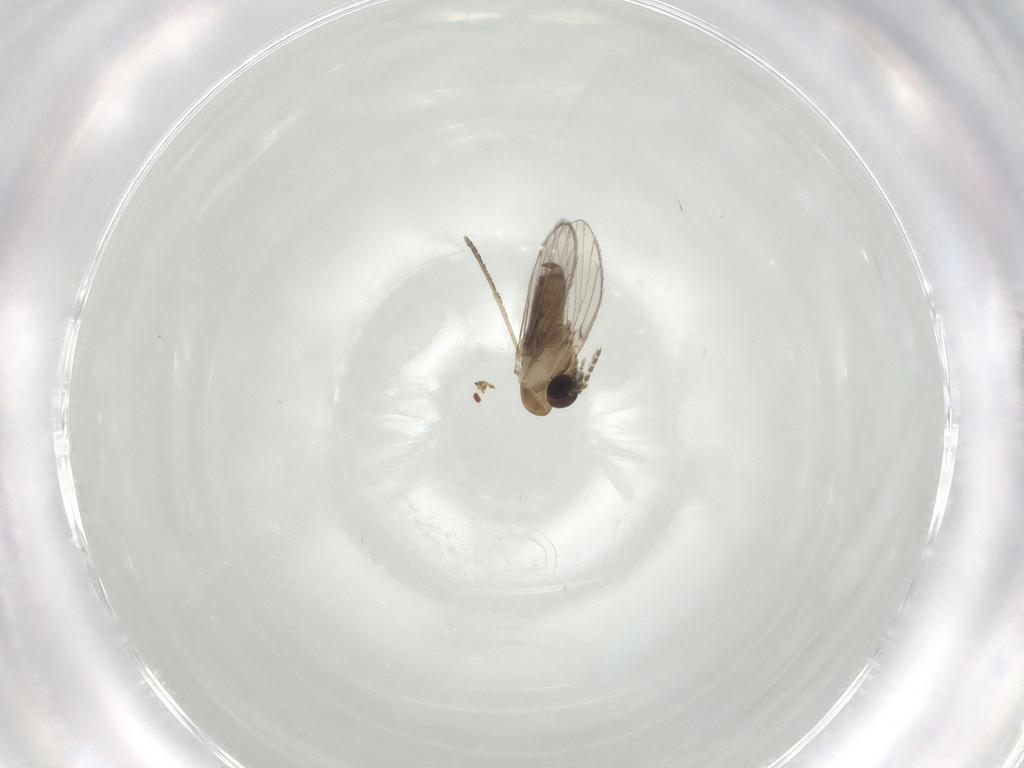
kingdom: Animalia
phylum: Arthropoda
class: Insecta
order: Diptera
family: Psychodidae
